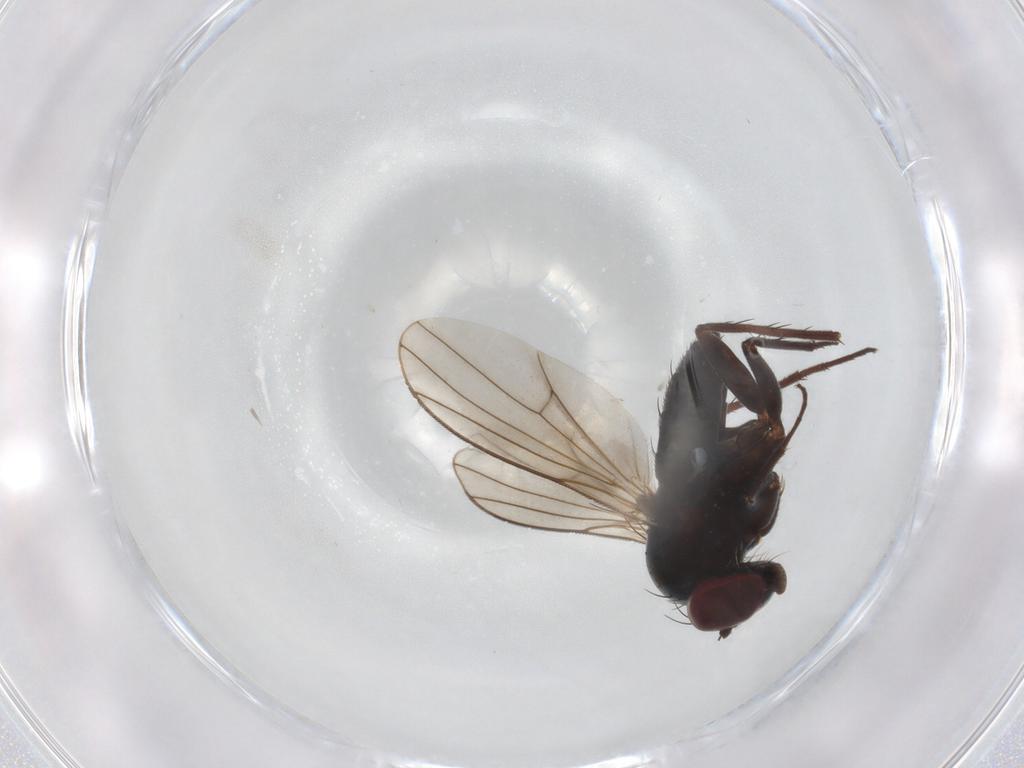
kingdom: Animalia
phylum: Arthropoda
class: Insecta
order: Diptera
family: Dolichopodidae
